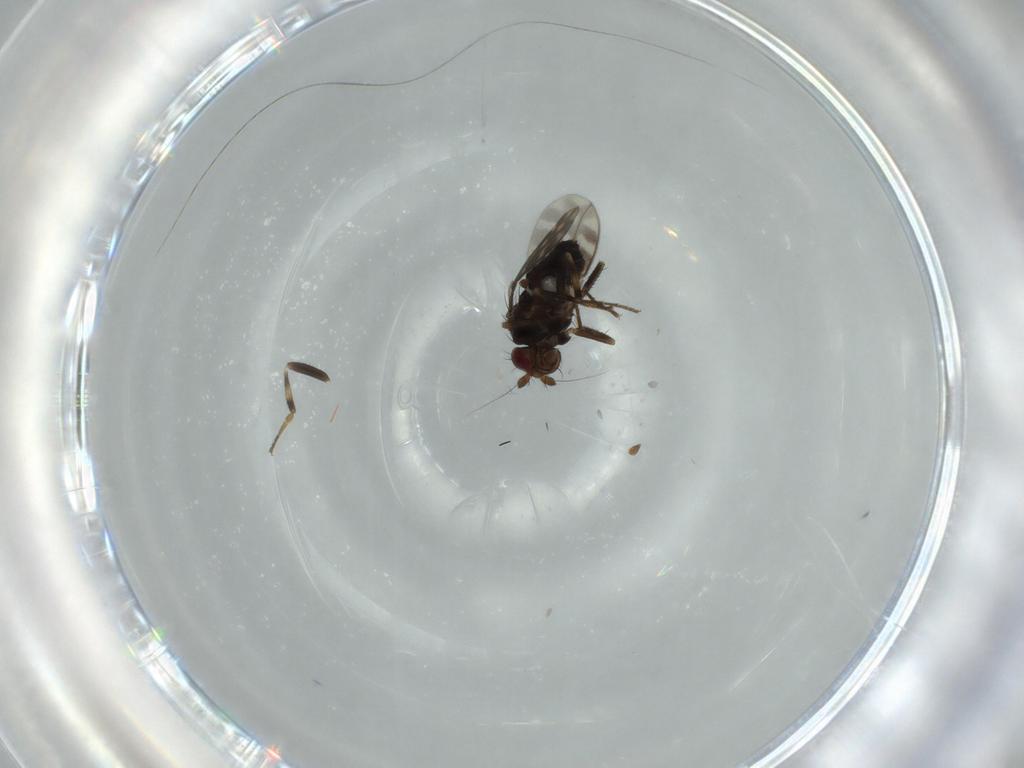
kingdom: Animalia
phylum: Arthropoda
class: Insecta
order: Diptera
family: Sphaeroceridae
